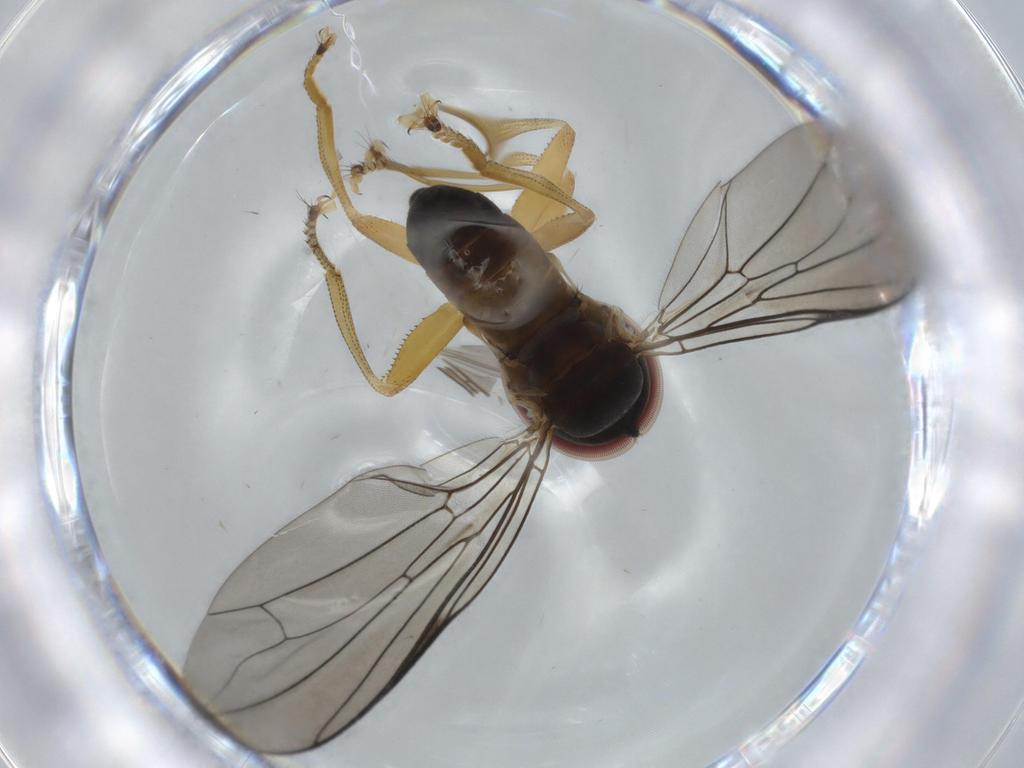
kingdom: Animalia
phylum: Arthropoda
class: Insecta
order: Diptera
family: Pipunculidae
